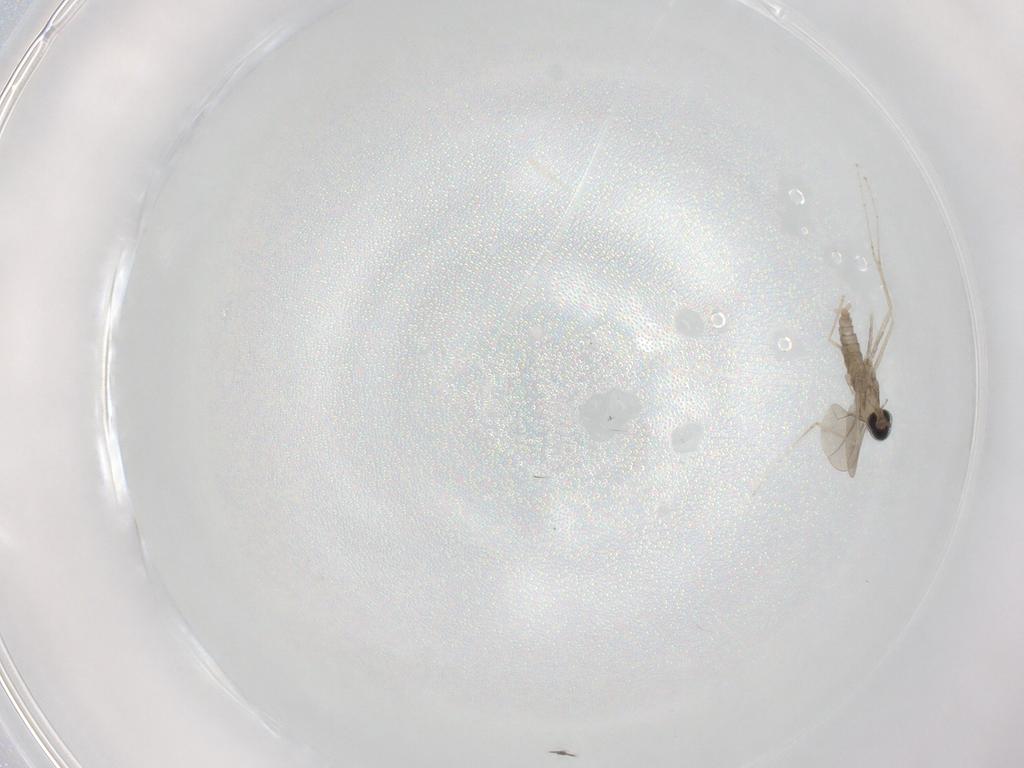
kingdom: Animalia
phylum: Arthropoda
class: Insecta
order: Diptera
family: Cecidomyiidae
